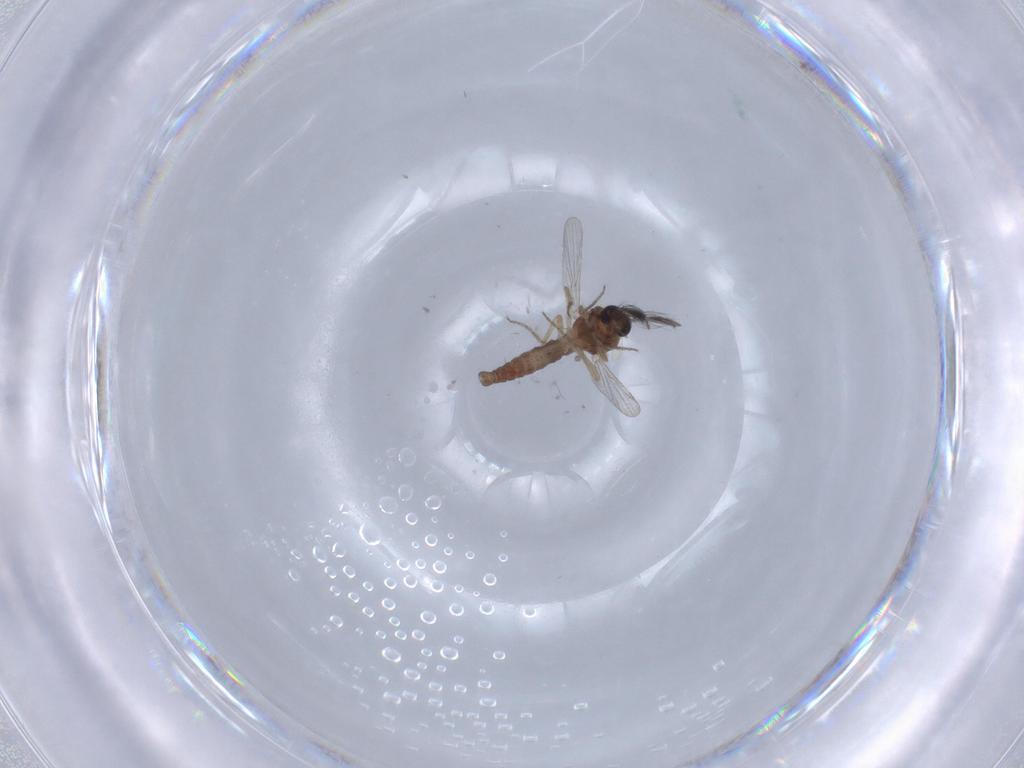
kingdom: Animalia
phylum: Arthropoda
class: Insecta
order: Diptera
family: Ceratopogonidae
